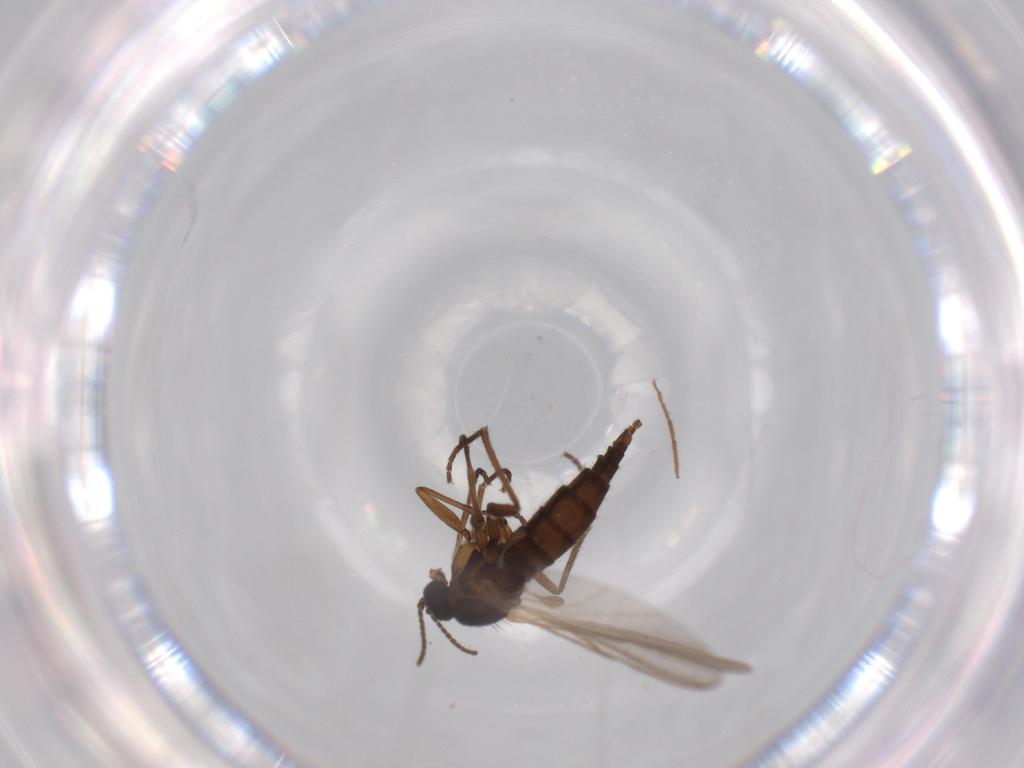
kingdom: Animalia
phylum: Arthropoda
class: Insecta
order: Diptera
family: Sciaridae
